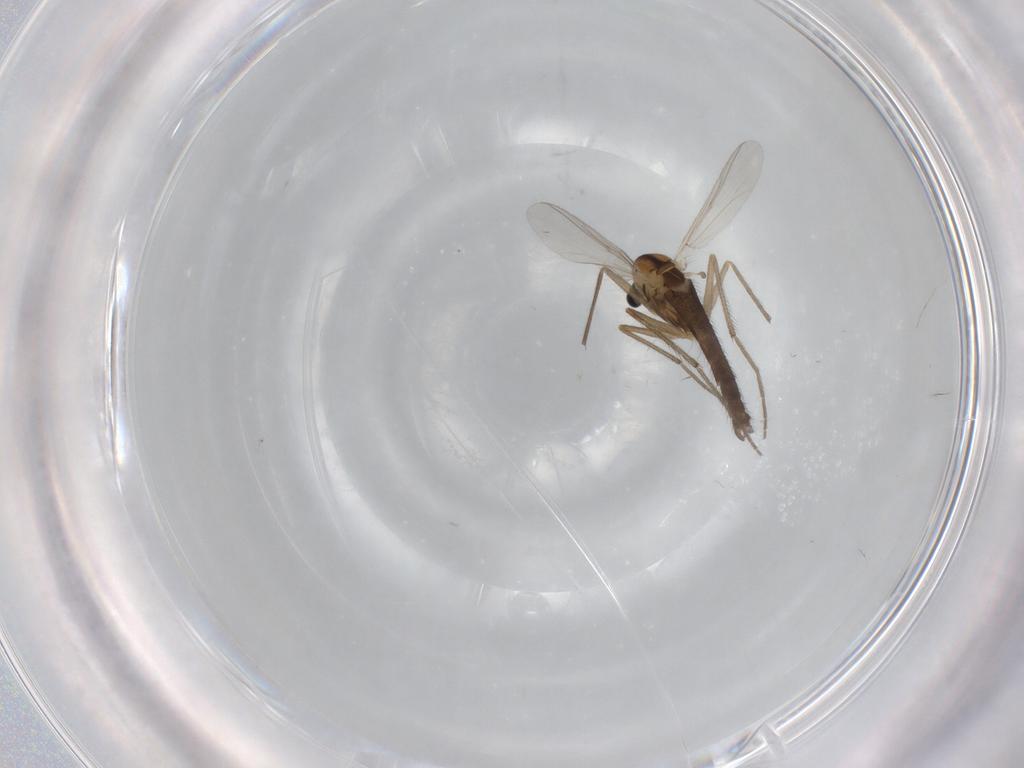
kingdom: Animalia
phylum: Arthropoda
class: Insecta
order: Diptera
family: Chironomidae
